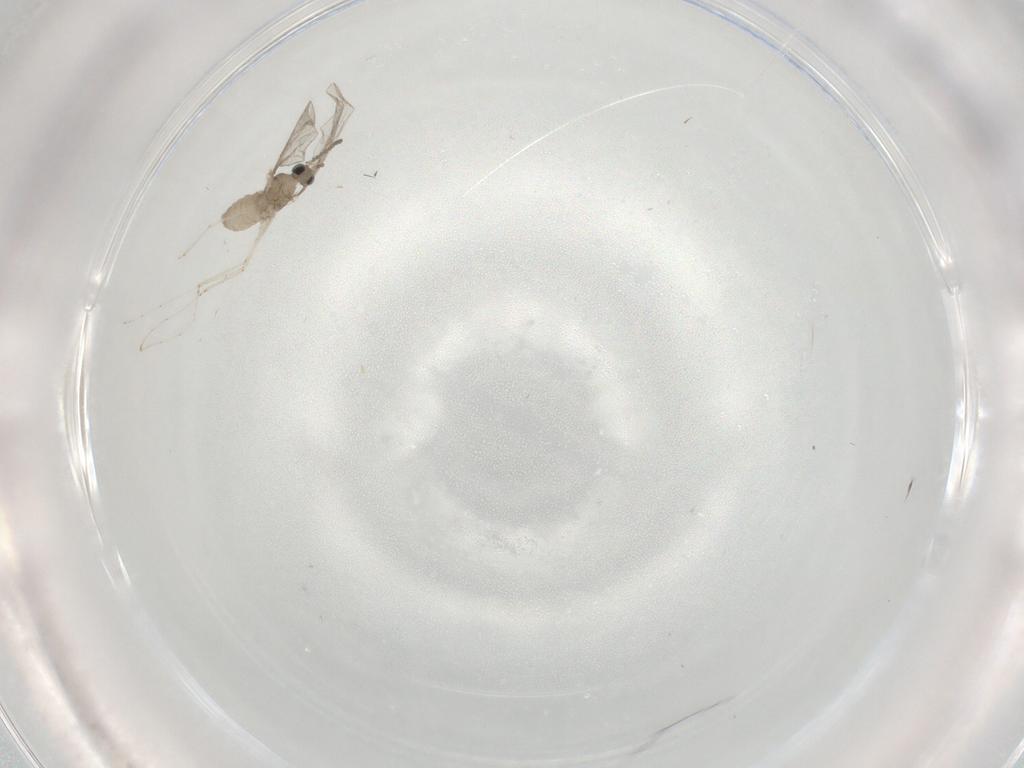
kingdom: Animalia
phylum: Arthropoda
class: Insecta
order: Diptera
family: Cecidomyiidae
